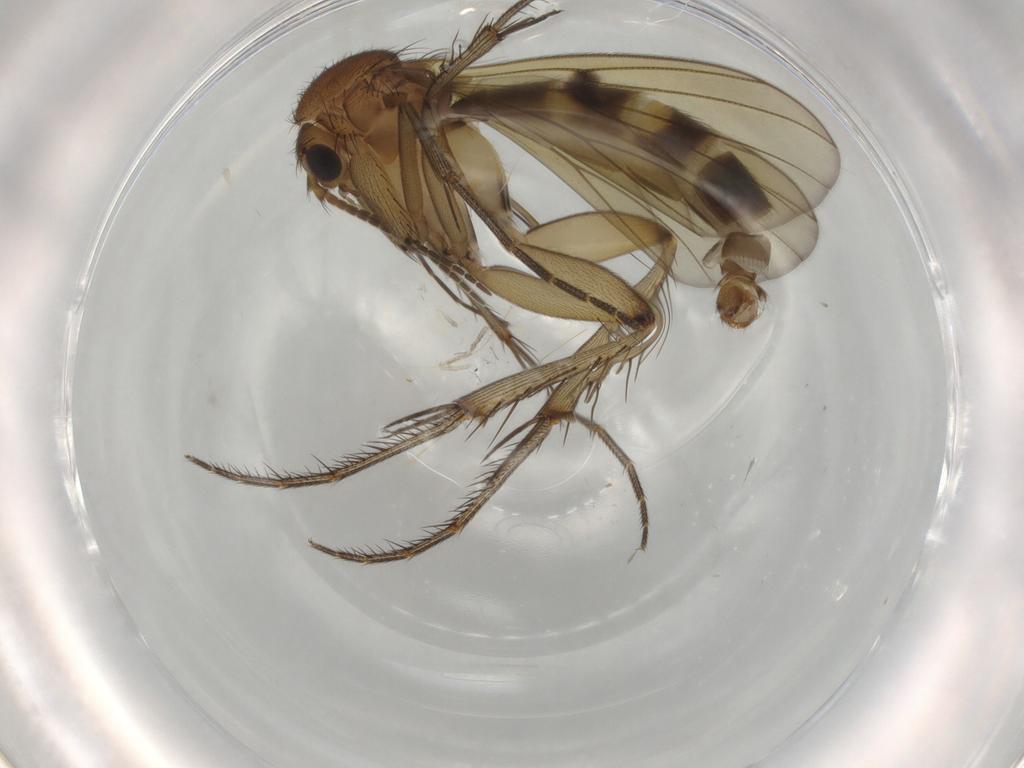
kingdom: Animalia
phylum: Arthropoda
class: Insecta
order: Diptera
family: Mycetophilidae
